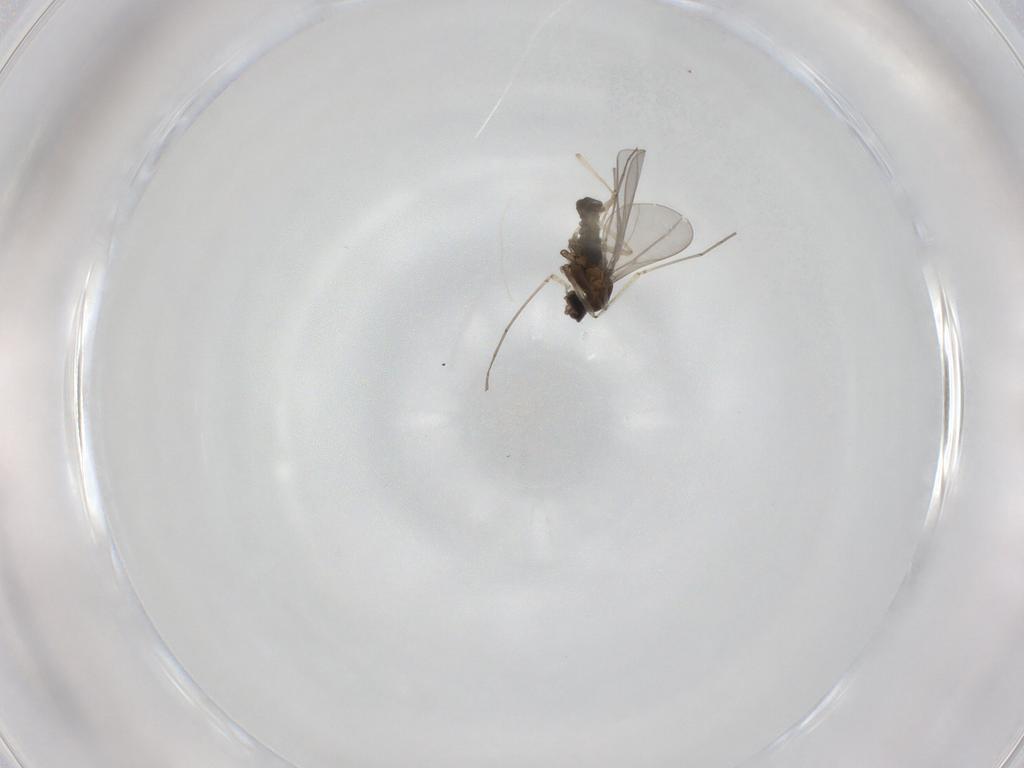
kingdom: Animalia
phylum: Arthropoda
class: Insecta
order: Diptera
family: Cecidomyiidae
